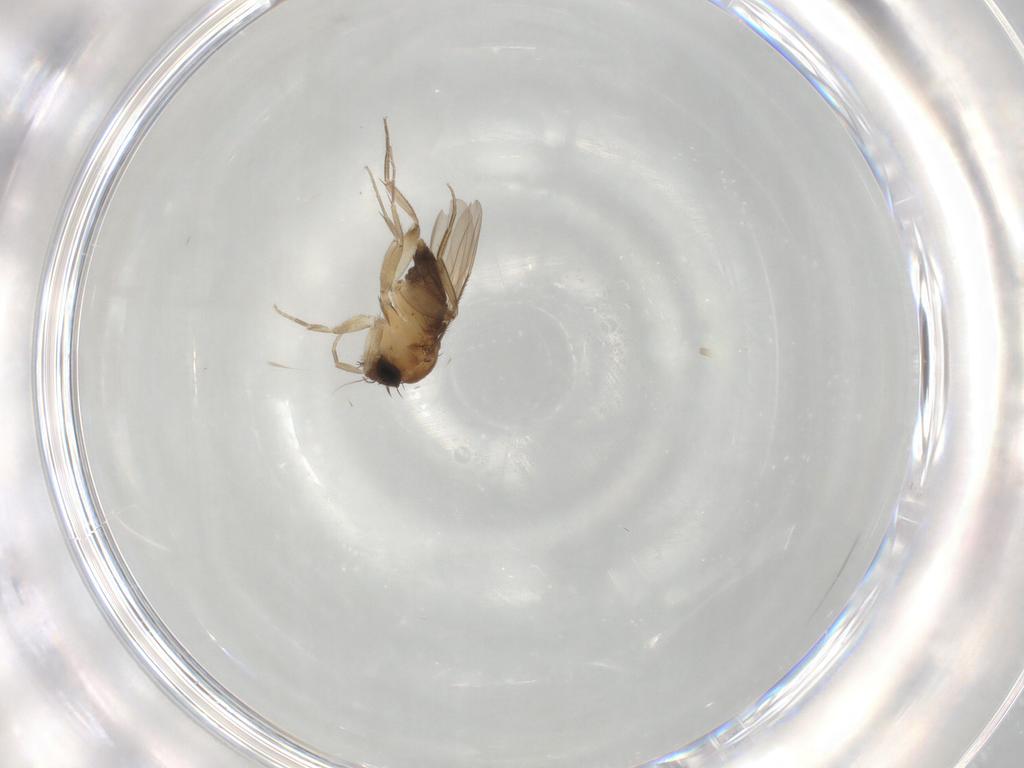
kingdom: Animalia
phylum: Arthropoda
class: Insecta
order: Diptera
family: Phoridae
